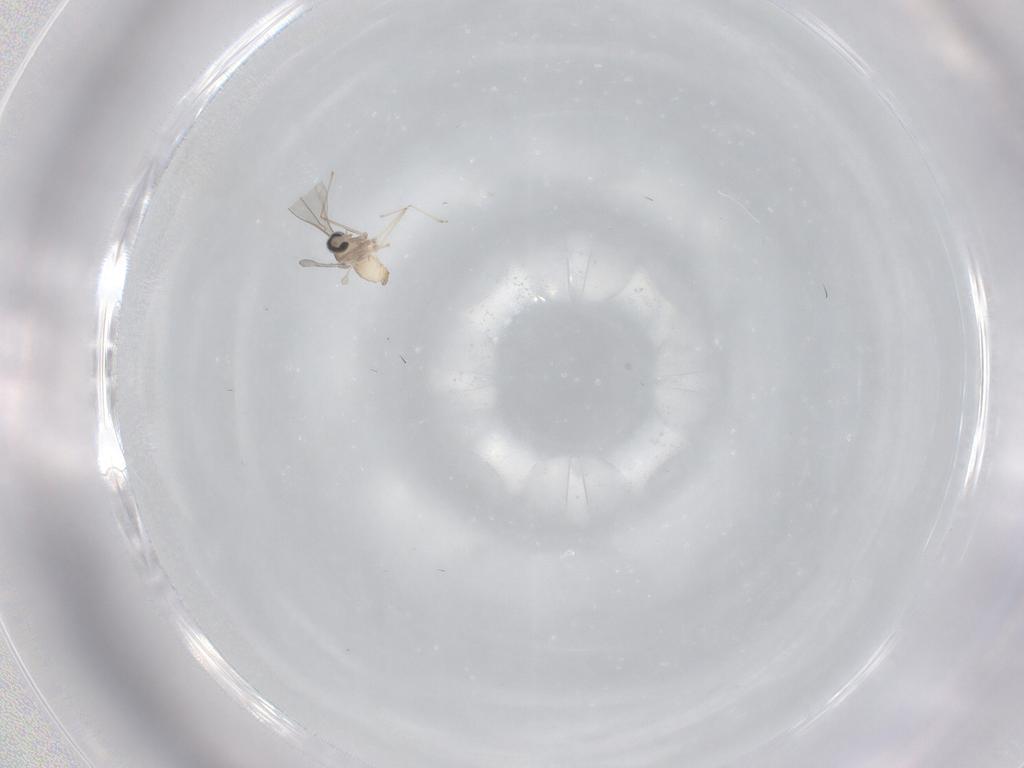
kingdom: Animalia
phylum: Arthropoda
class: Insecta
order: Diptera
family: Cecidomyiidae
